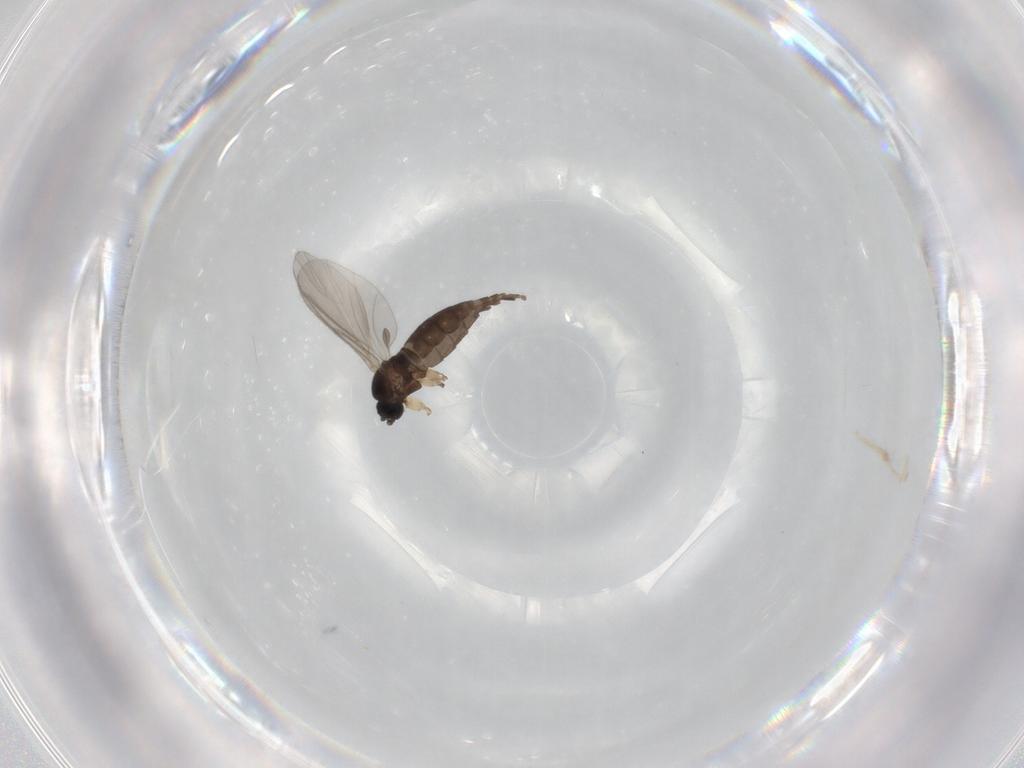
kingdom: Animalia
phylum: Arthropoda
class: Insecta
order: Diptera
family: Sciaridae
